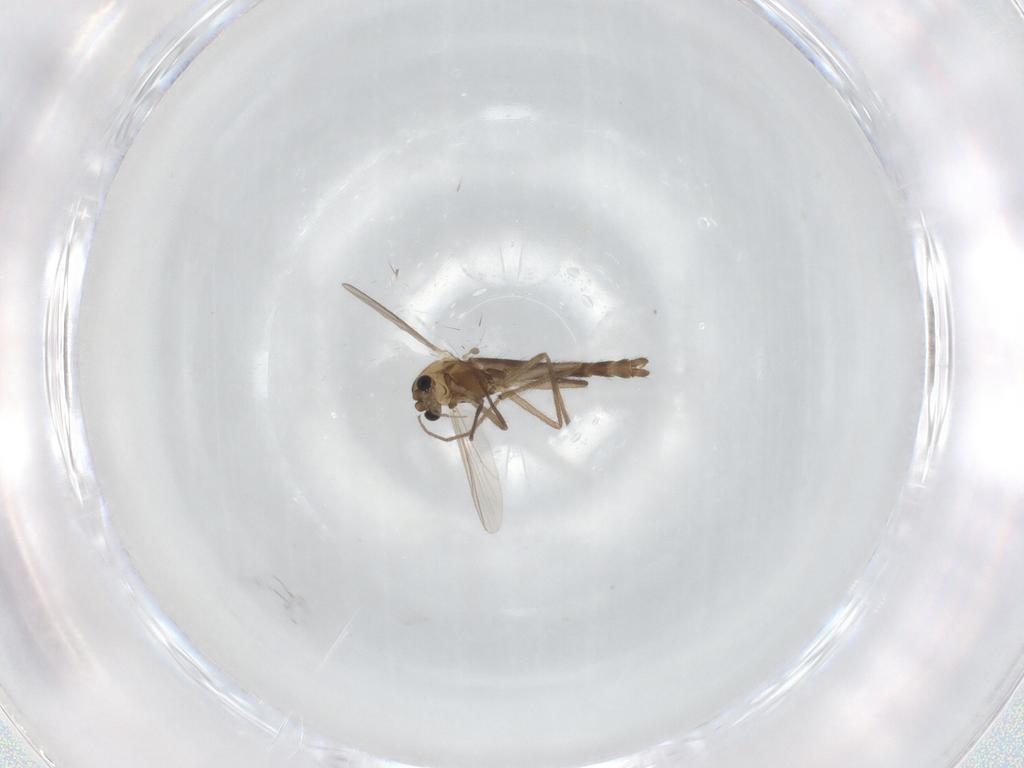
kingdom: Animalia
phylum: Arthropoda
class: Insecta
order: Diptera
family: Chironomidae
